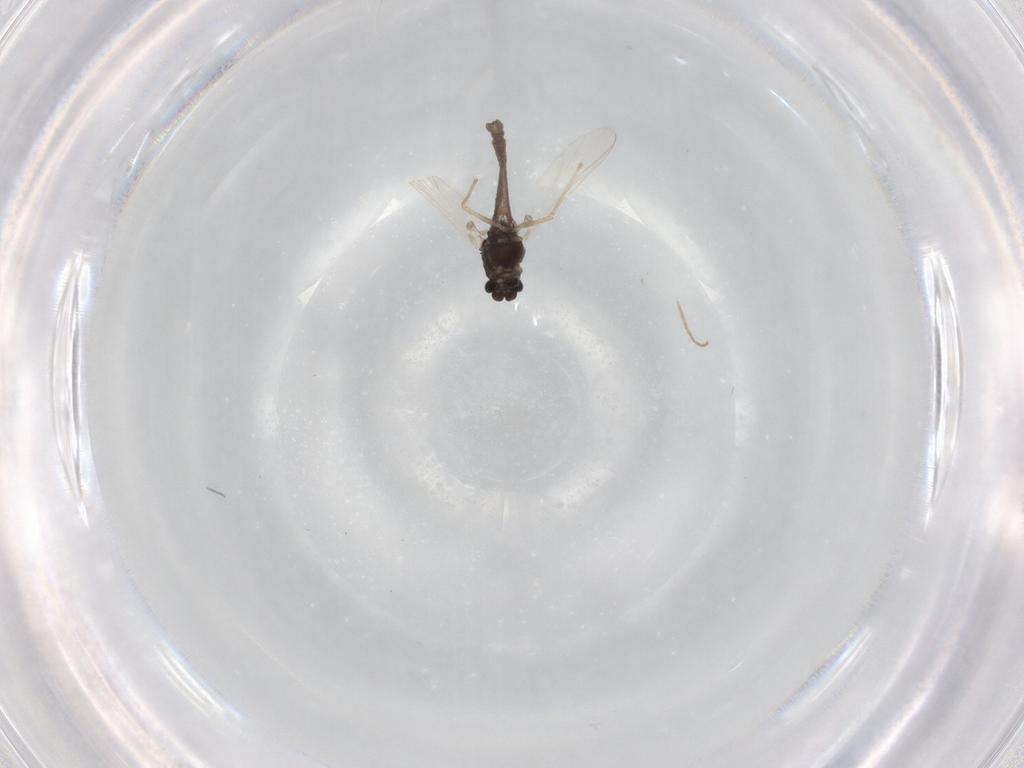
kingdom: Animalia
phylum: Arthropoda
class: Insecta
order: Diptera
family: Chironomidae
